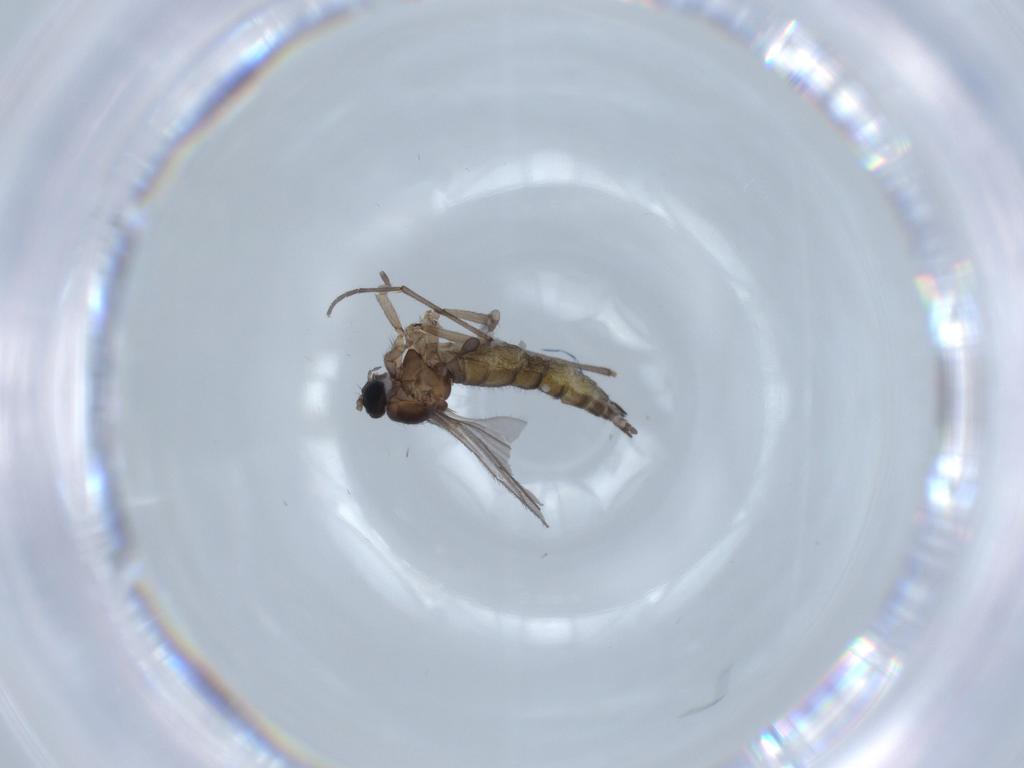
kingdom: Animalia
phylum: Arthropoda
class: Insecta
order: Diptera
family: Sciaridae
